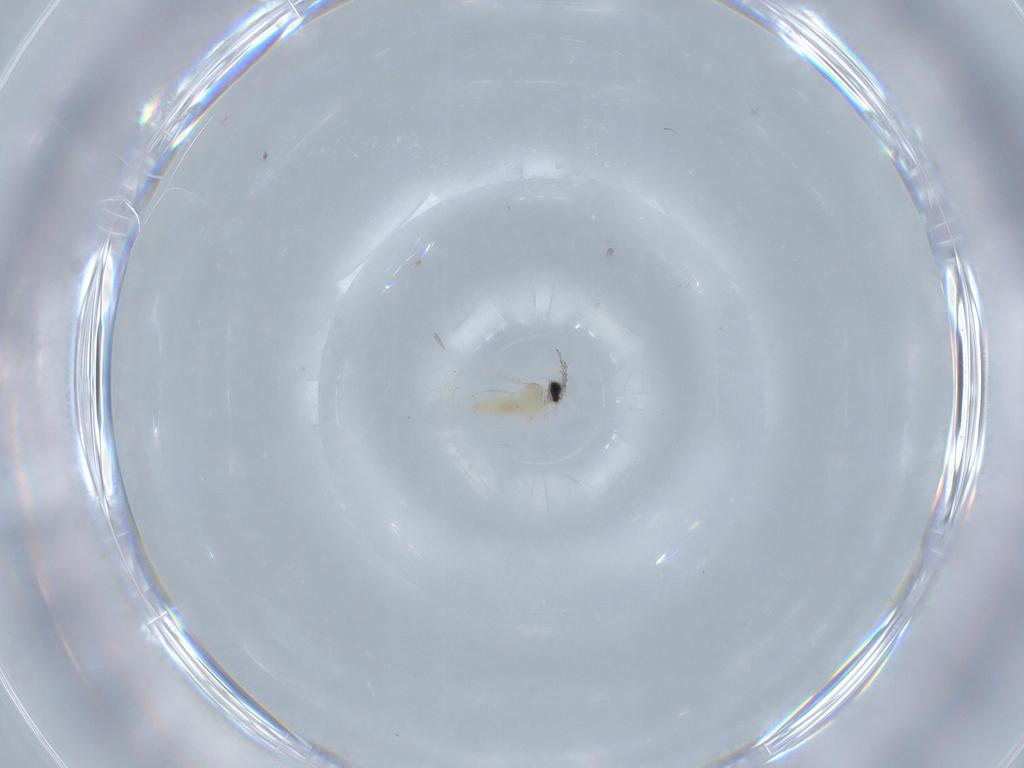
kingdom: Animalia
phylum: Arthropoda
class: Insecta
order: Diptera
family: Cecidomyiidae
